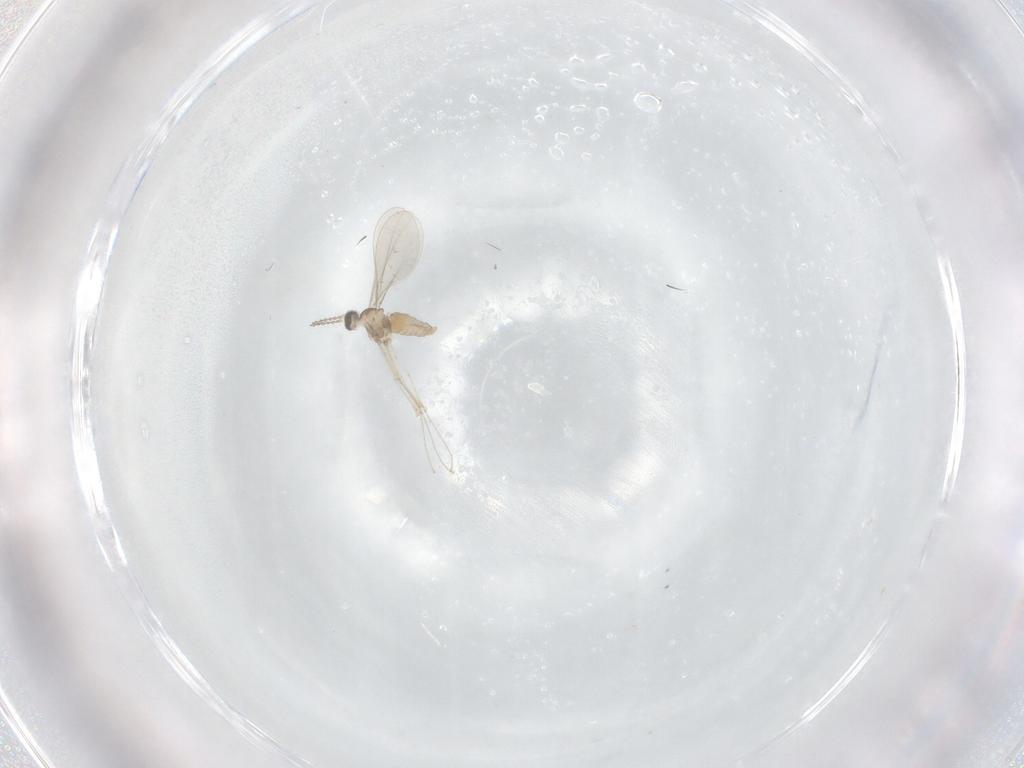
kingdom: Animalia
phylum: Arthropoda
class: Insecta
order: Diptera
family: Cecidomyiidae
